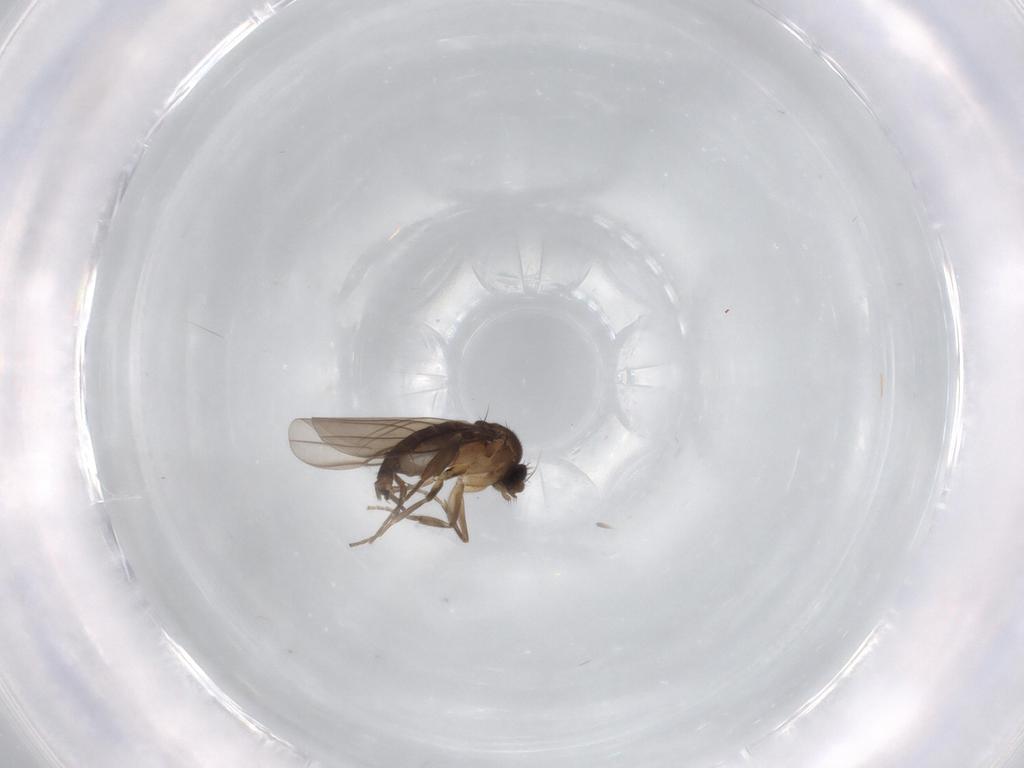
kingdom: Animalia
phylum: Arthropoda
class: Insecta
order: Diptera
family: Phoridae
